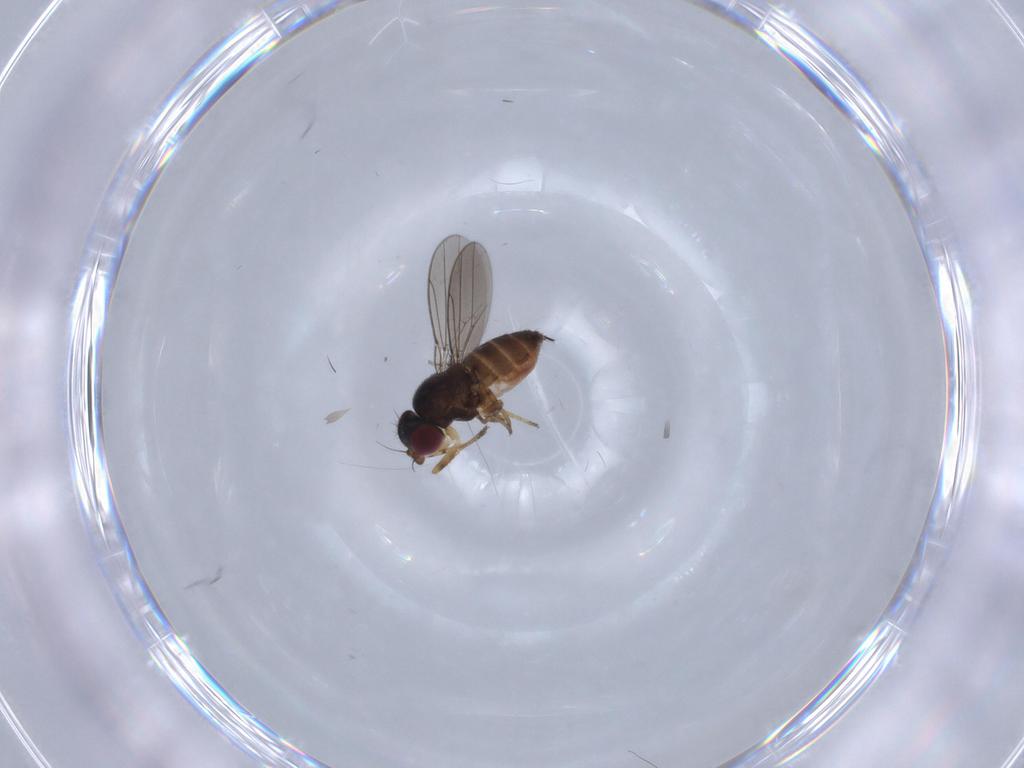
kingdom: Animalia
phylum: Arthropoda
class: Insecta
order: Diptera
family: Chloropidae
